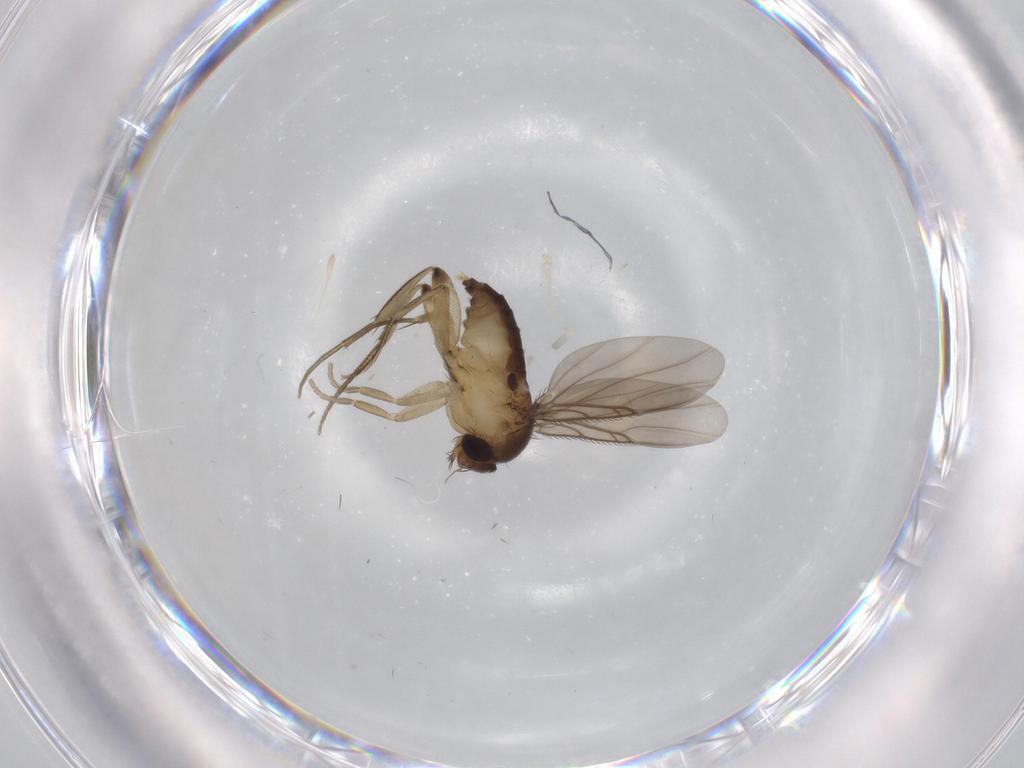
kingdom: Animalia
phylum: Arthropoda
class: Insecta
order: Diptera
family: Phoridae
